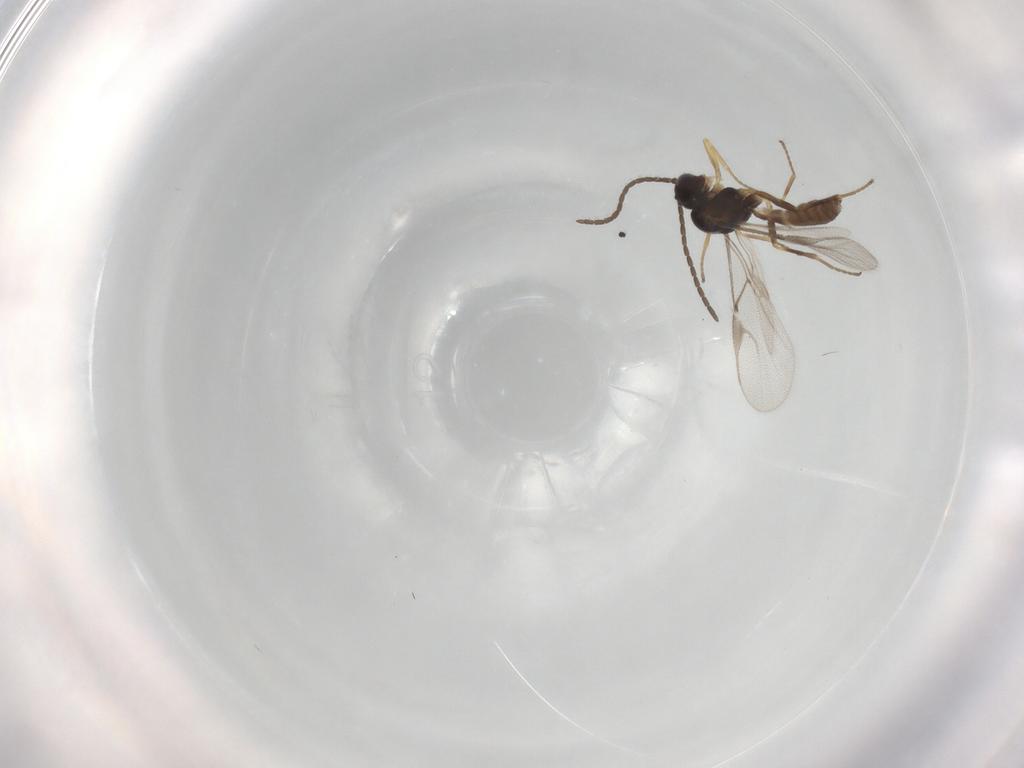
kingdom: Animalia
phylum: Arthropoda
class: Insecta
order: Hymenoptera
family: Braconidae
